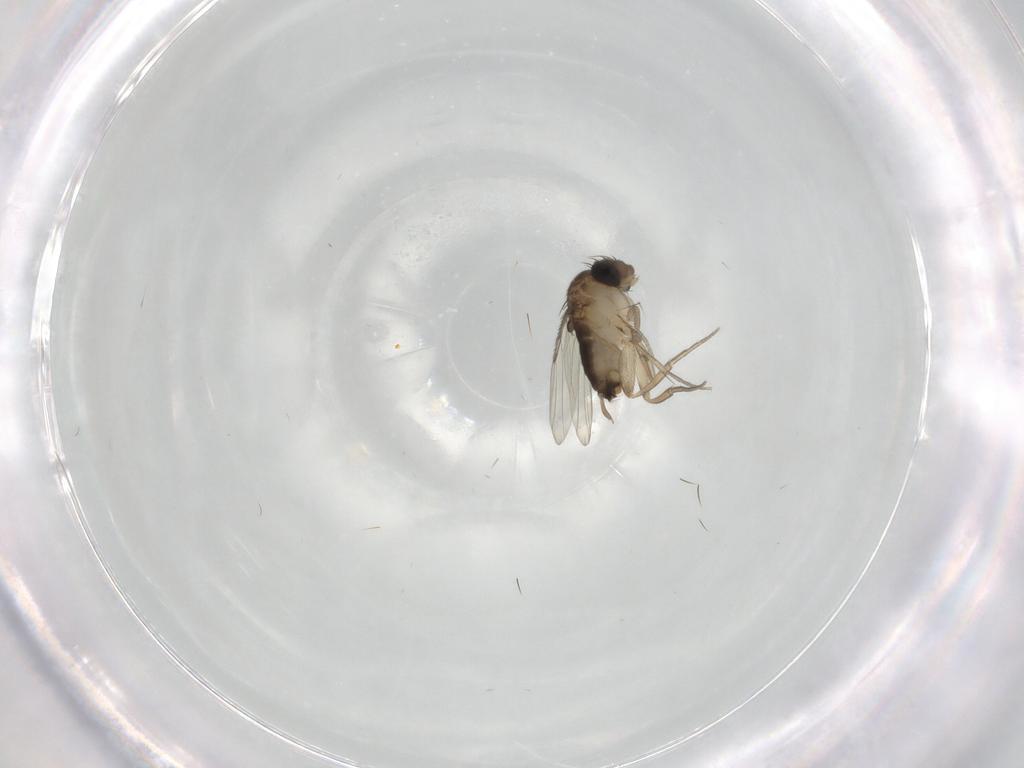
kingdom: Animalia
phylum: Arthropoda
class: Insecta
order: Diptera
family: Phoridae
